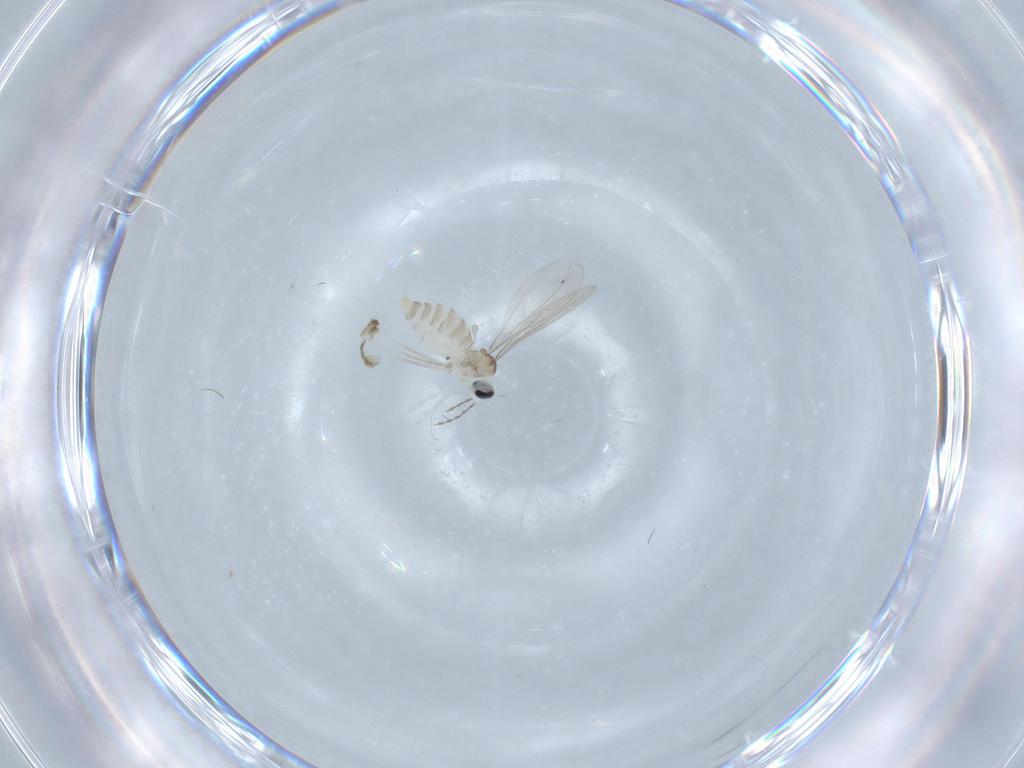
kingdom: Animalia
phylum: Arthropoda
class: Insecta
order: Diptera
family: Cecidomyiidae
